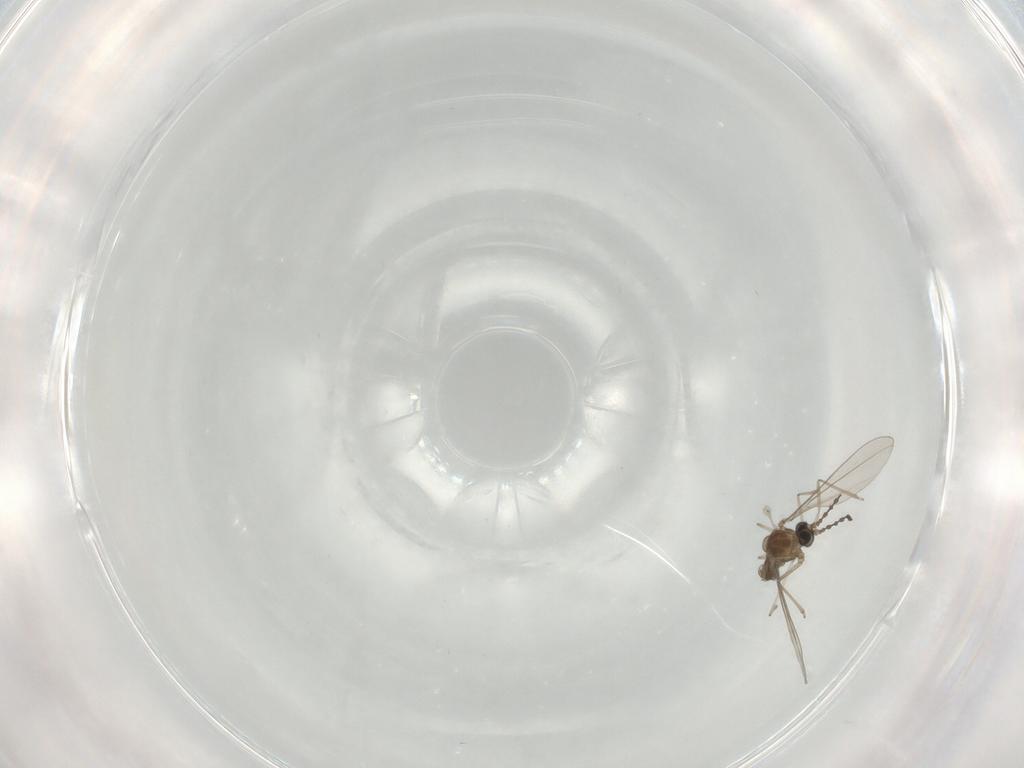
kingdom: Animalia
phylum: Arthropoda
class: Insecta
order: Diptera
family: Cecidomyiidae
